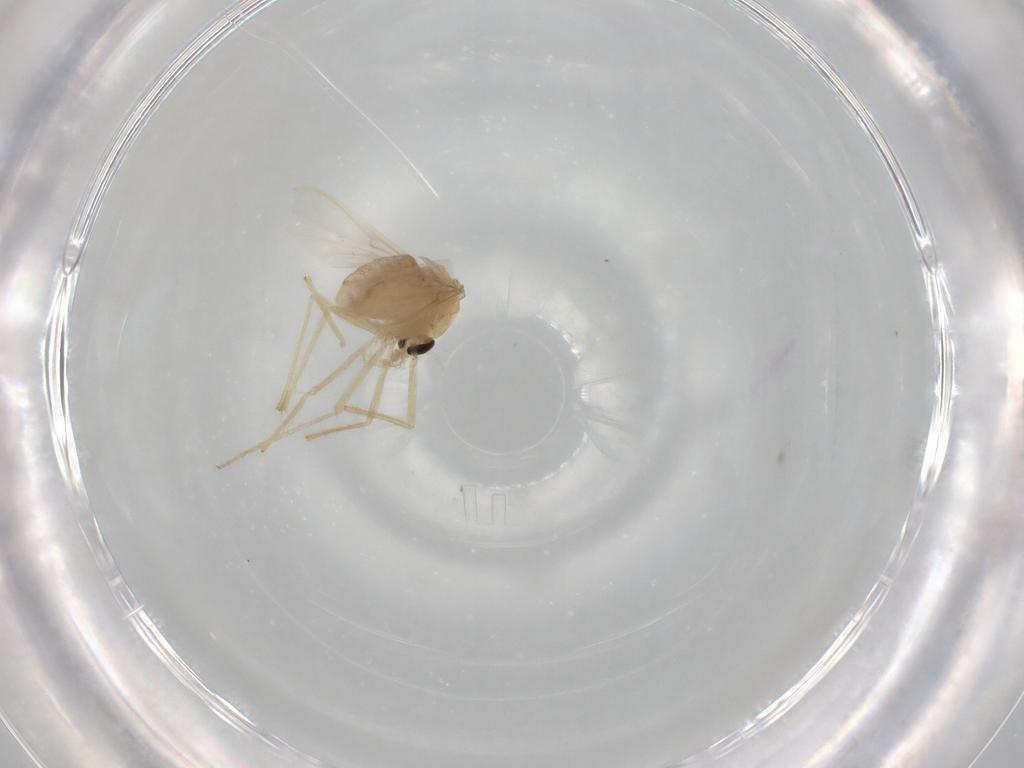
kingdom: Animalia
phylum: Arthropoda
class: Insecta
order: Diptera
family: Chironomidae
